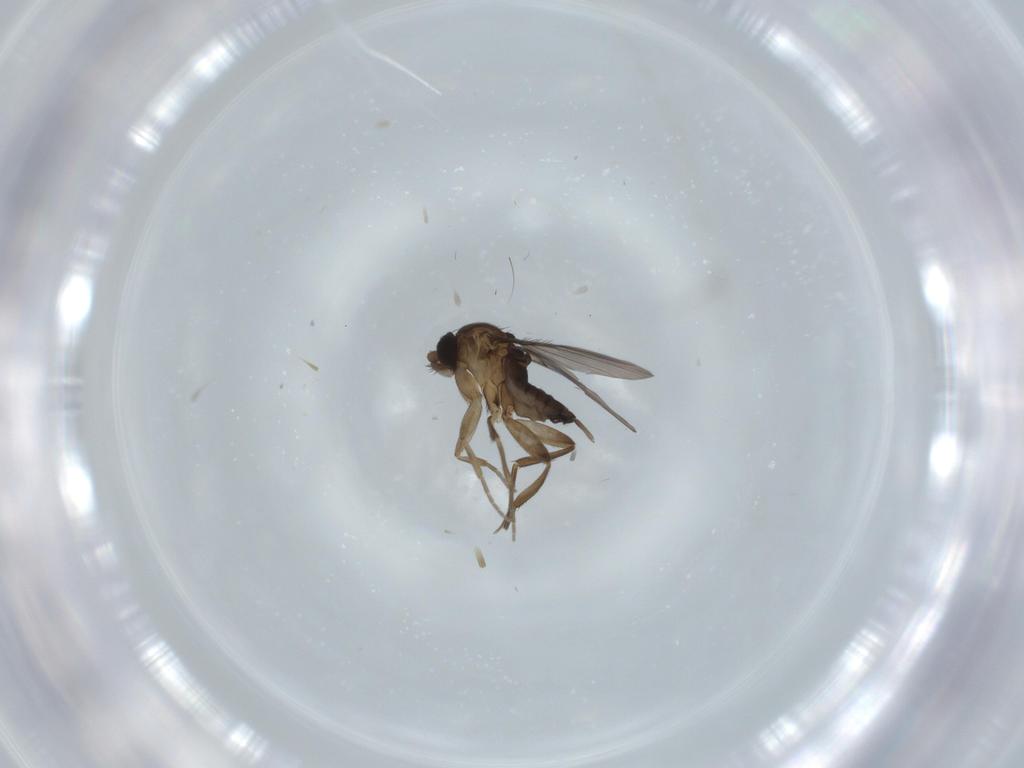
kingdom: Animalia
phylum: Arthropoda
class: Insecta
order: Diptera
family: Phoridae
